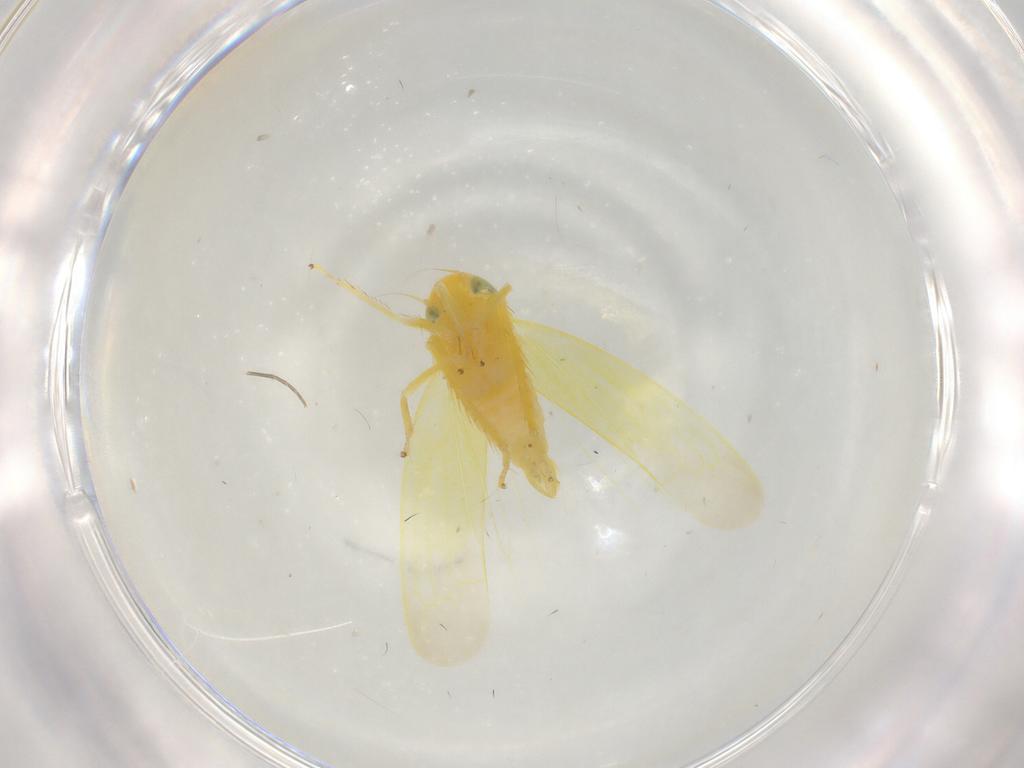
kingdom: Animalia
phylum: Arthropoda
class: Insecta
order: Hemiptera
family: Cicadellidae
